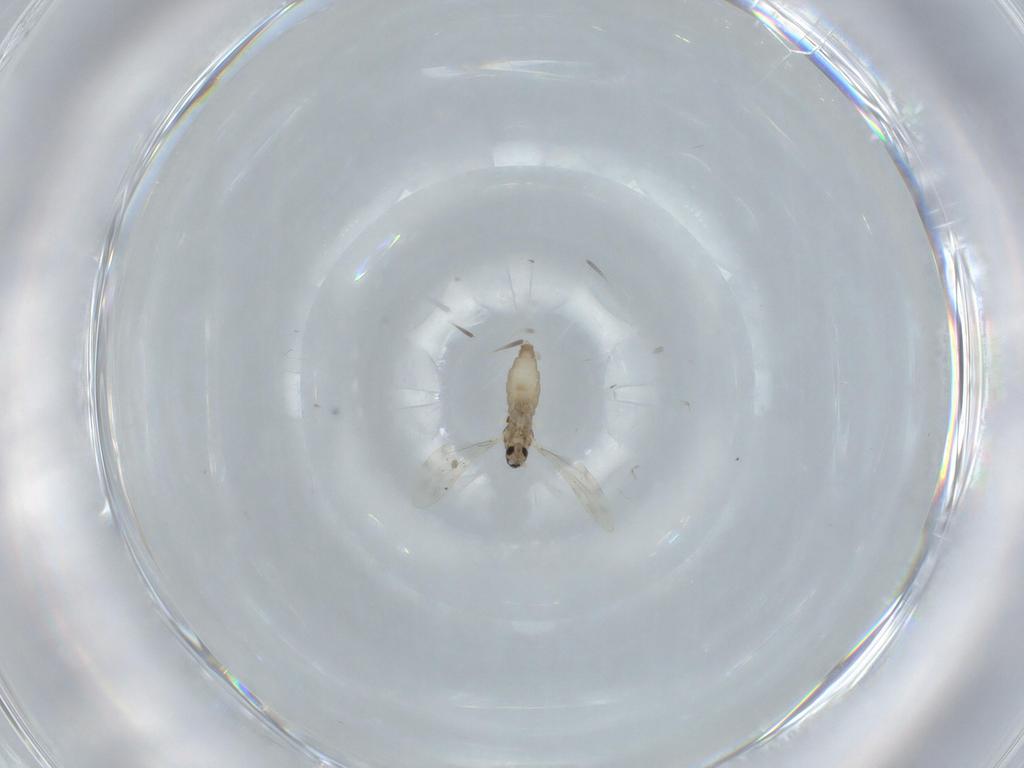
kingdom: Animalia
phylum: Arthropoda
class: Insecta
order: Diptera
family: Cecidomyiidae
